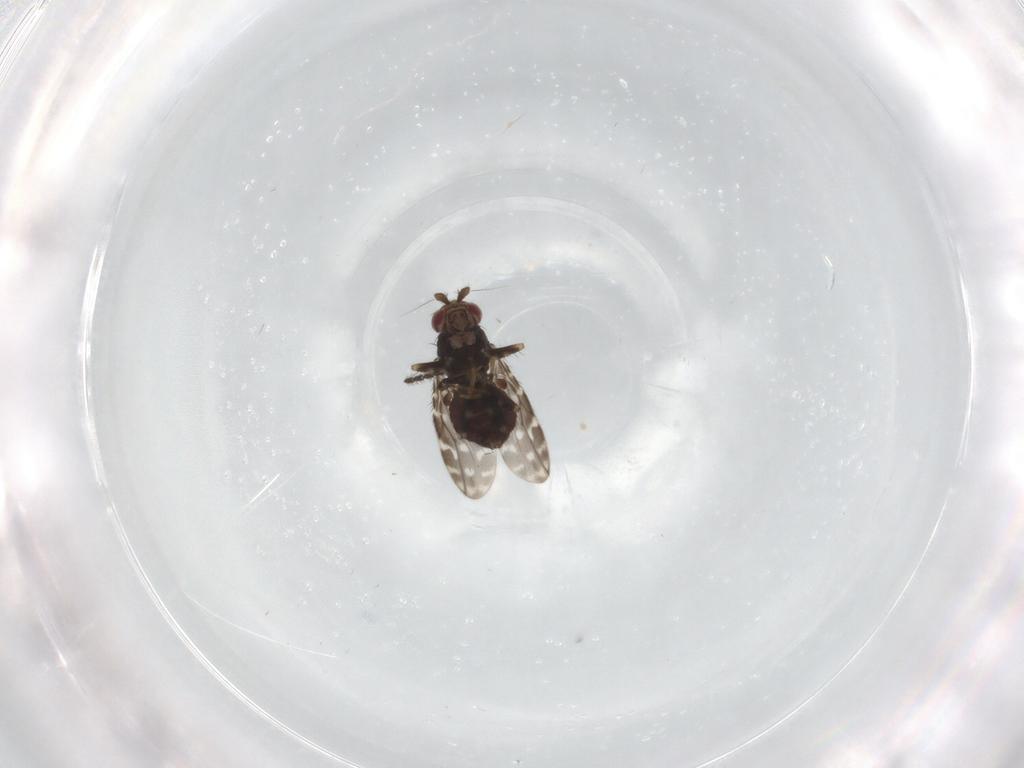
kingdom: Animalia
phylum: Arthropoda
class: Insecta
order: Diptera
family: Sphaeroceridae
